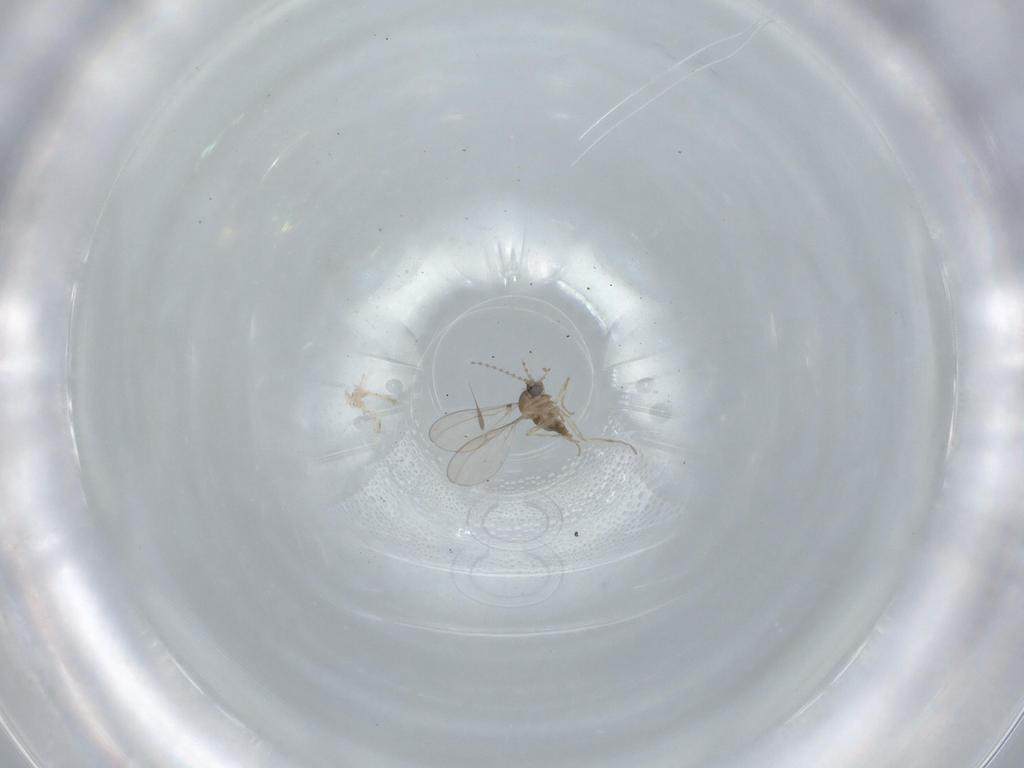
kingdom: Animalia
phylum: Arthropoda
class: Insecta
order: Diptera
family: Cecidomyiidae
